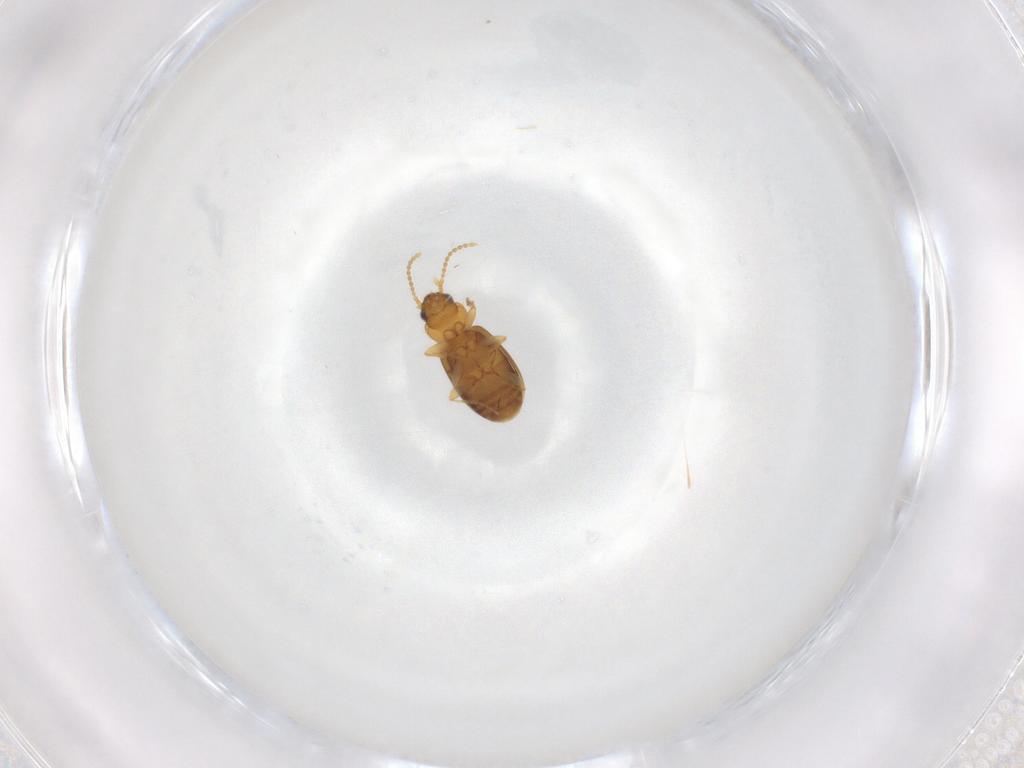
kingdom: Animalia
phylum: Arthropoda
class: Insecta
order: Coleoptera
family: Carabidae
